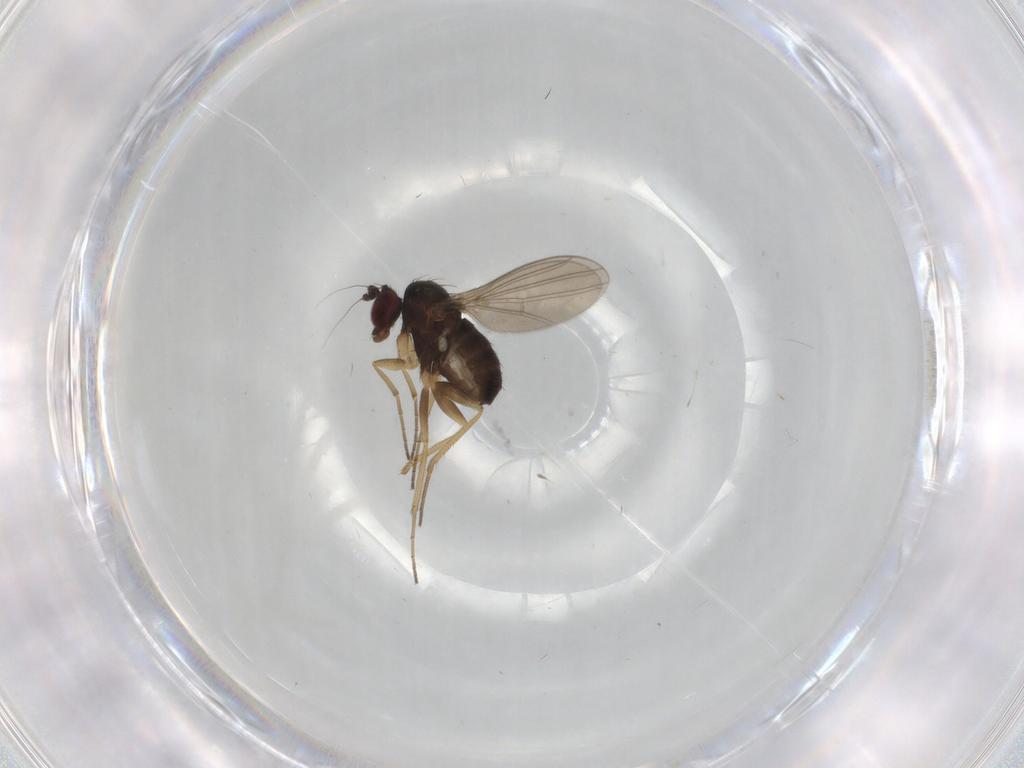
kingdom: Animalia
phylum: Arthropoda
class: Insecta
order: Diptera
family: Dolichopodidae
